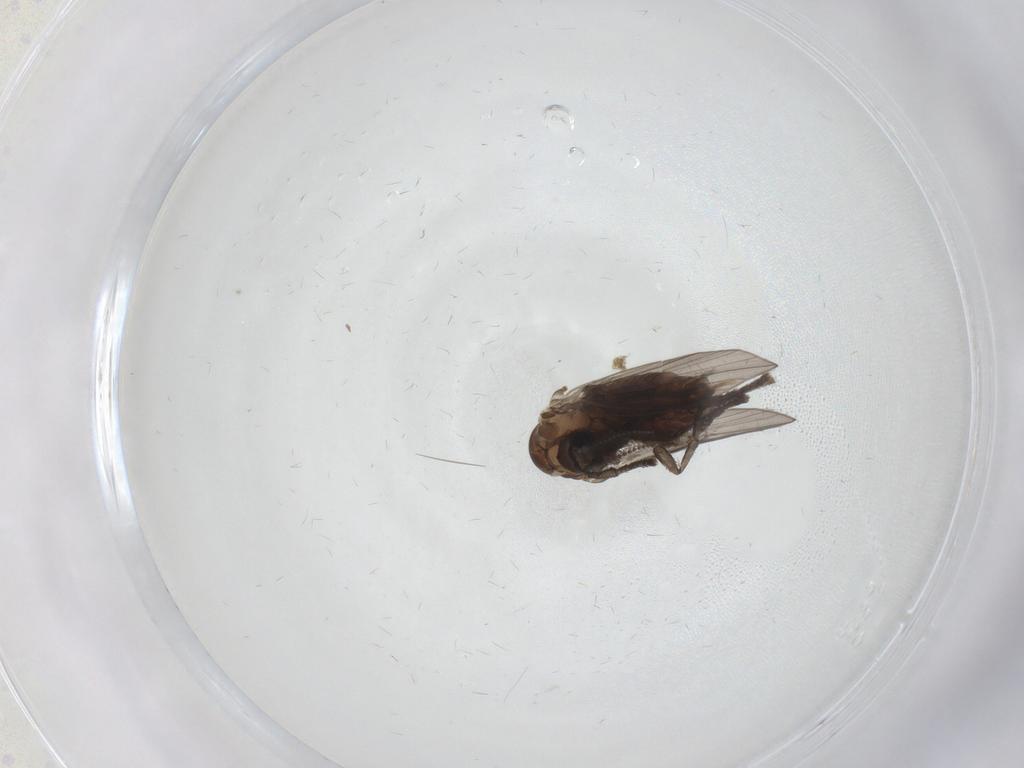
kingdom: Animalia
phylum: Arthropoda
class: Insecta
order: Diptera
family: Psychodidae
